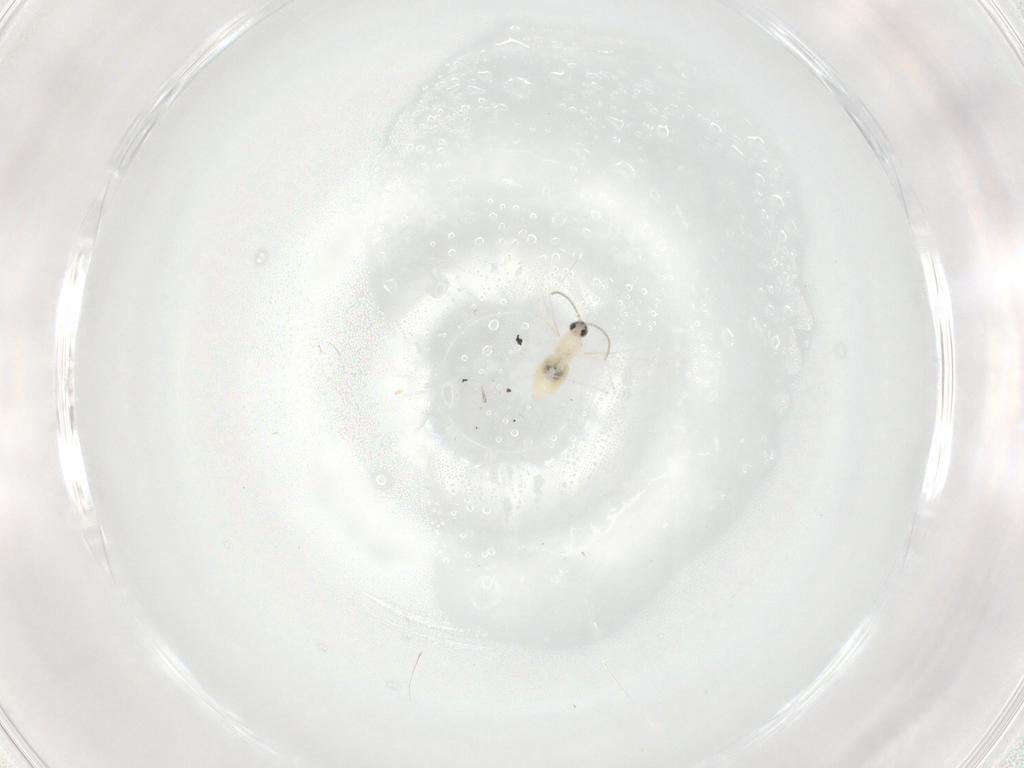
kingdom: Animalia
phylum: Arthropoda
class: Insecta
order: Diptera
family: Cecidomyiidae
